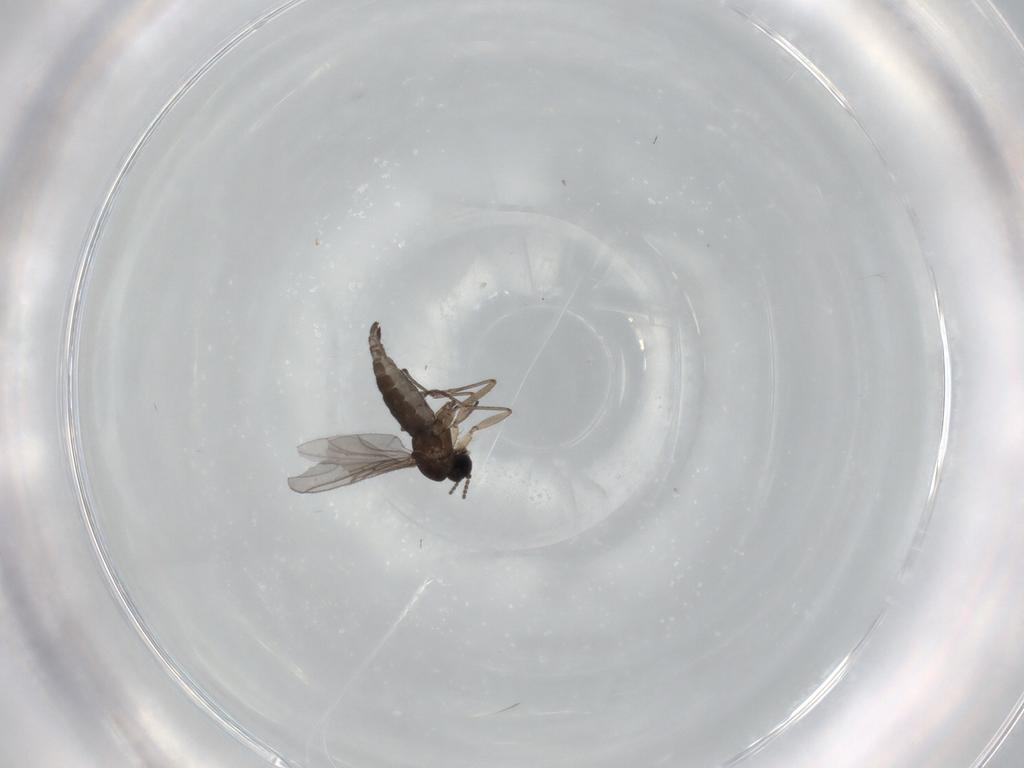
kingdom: Animalia
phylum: Arthropoda
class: Insecta
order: Diptera
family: Sciaridae
